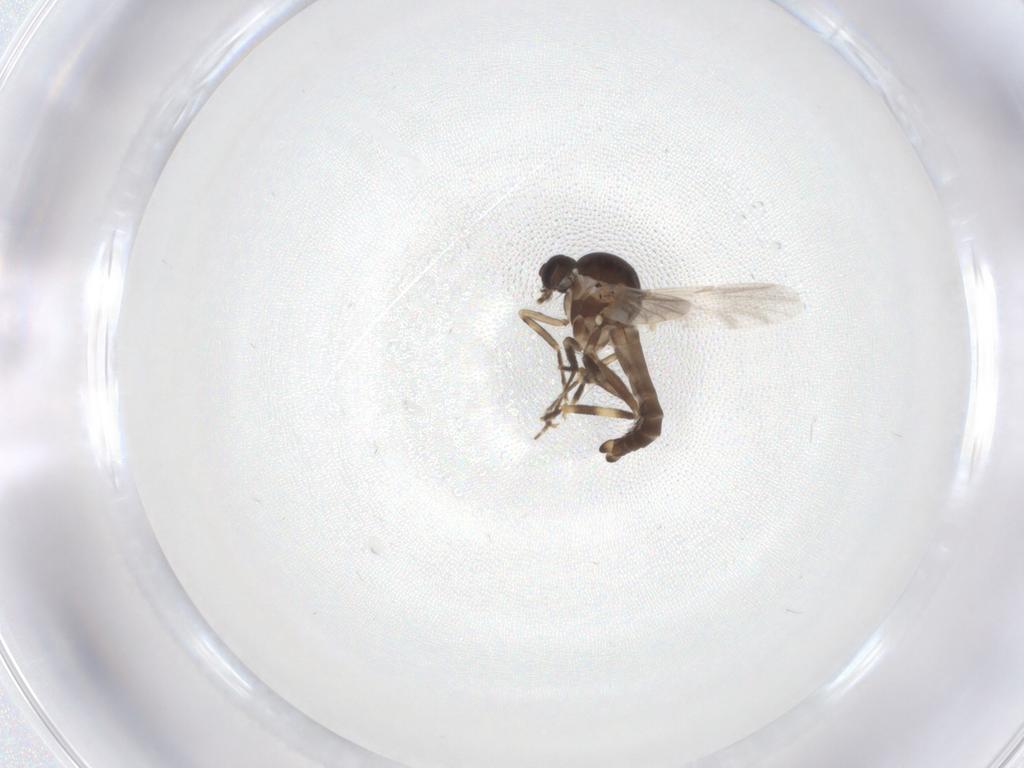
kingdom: Animalia
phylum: Arthropoda
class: Insecta
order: Diptera
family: Ceratopogonidae
